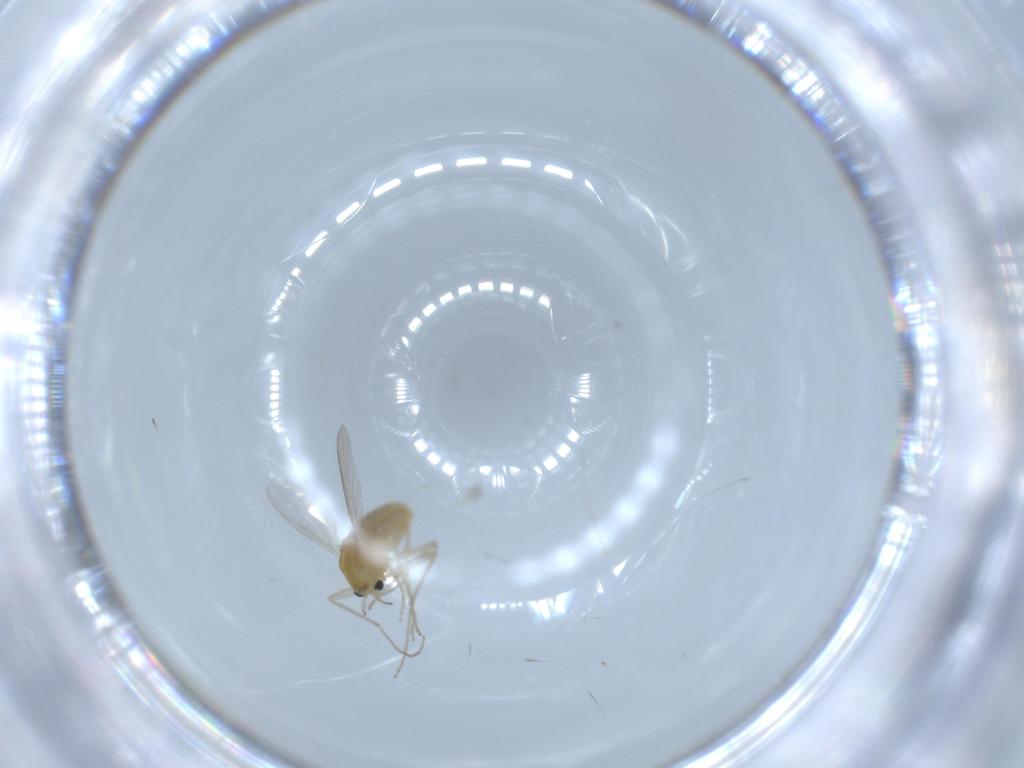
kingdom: Animalia
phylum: Arthropoda
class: Insecta
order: Diptera
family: Chironomidae
